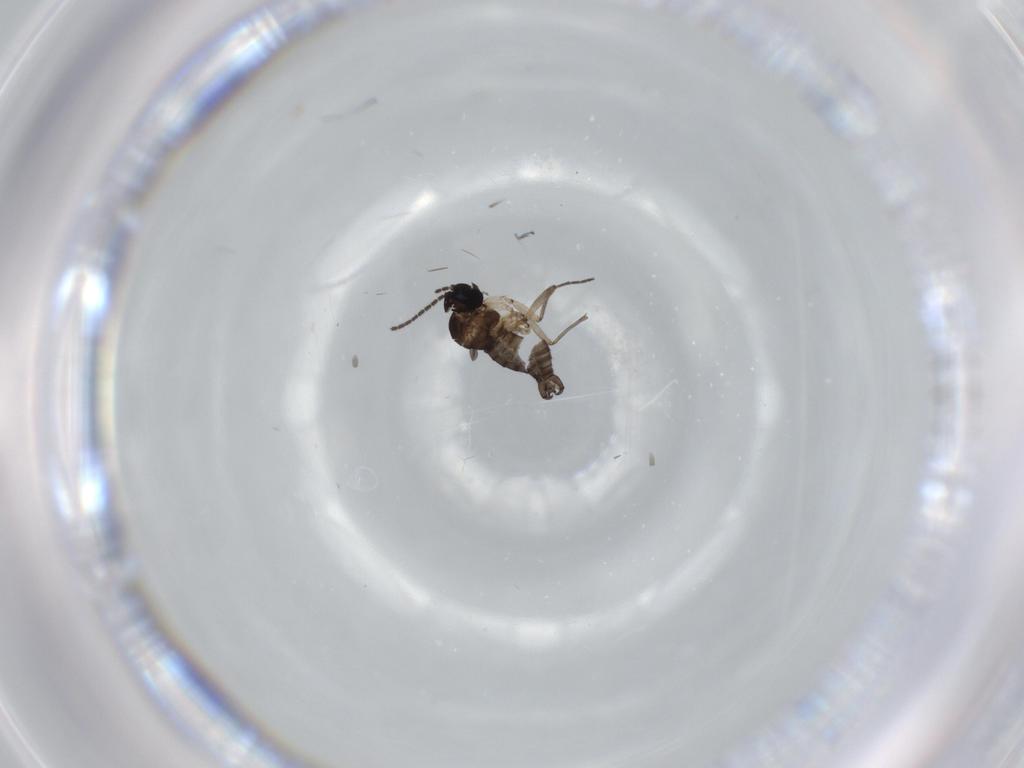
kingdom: Animalia
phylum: Arthropoda
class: Insecta
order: Diptera
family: Sciaridae
